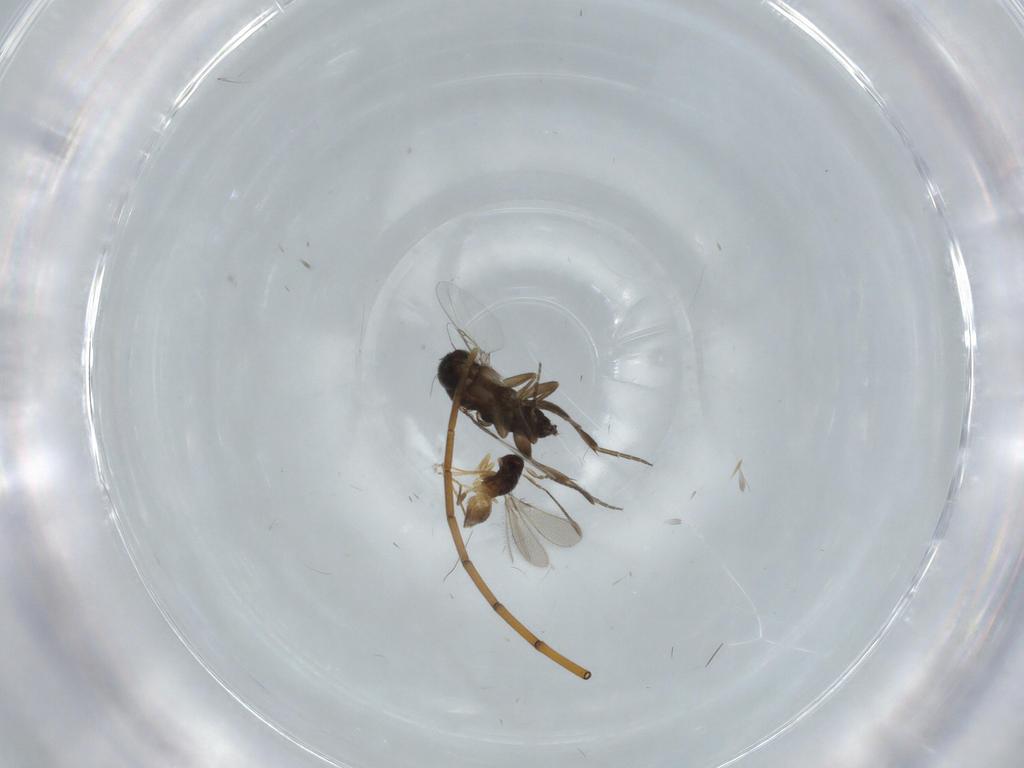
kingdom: Animalia
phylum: Arthropoda
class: Insecta
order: Diptera
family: Phoridae
